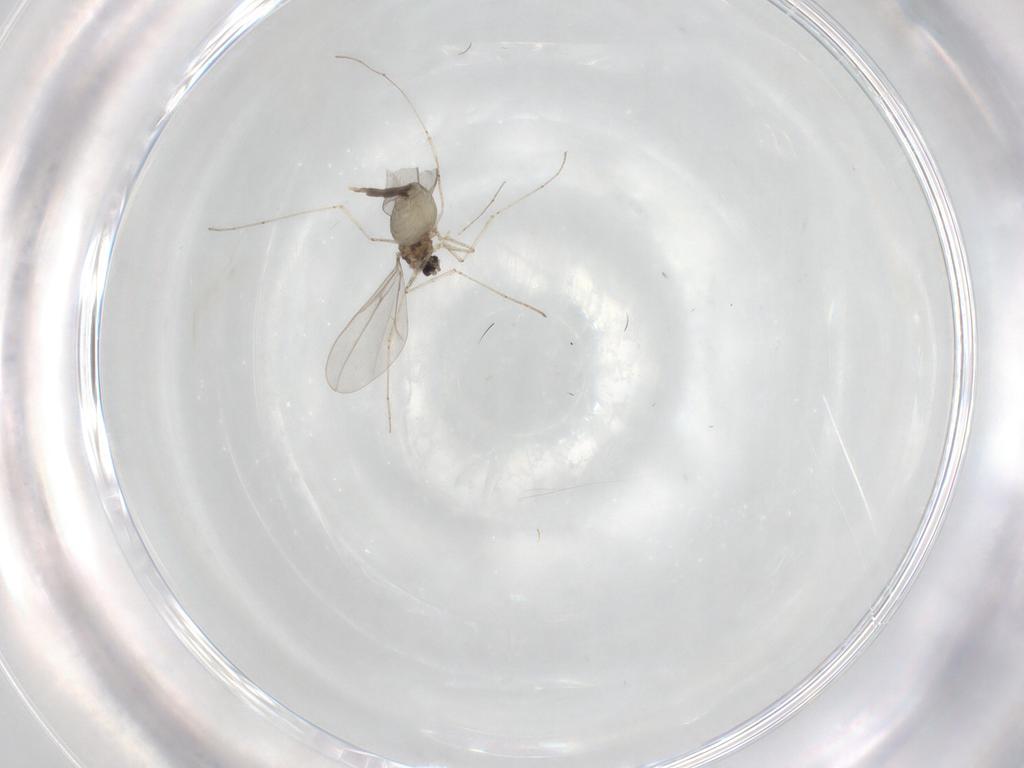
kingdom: Animalia
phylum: Arthropoda
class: Insecta
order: Diptera
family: Cecidomyiidae
